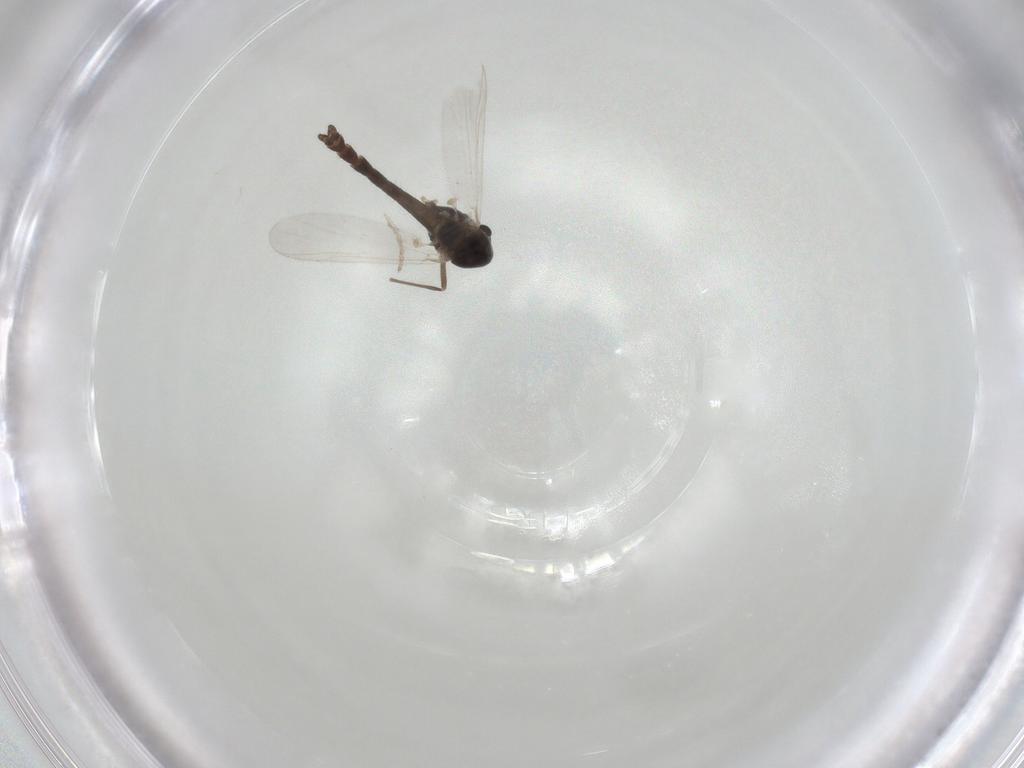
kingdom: Animalia
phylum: Arthropoda
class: Insecta
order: Diptera
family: Chironomidae
